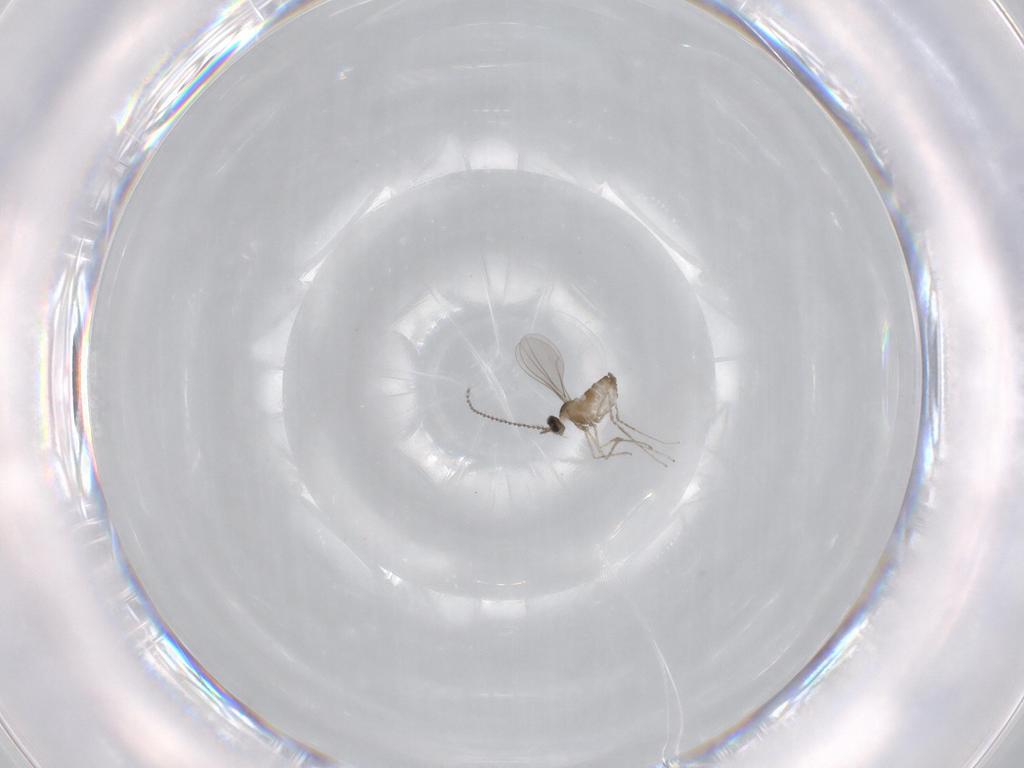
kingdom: Animalia
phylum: Arthropoda
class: Insecta
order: Diptera
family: Cecidomyiidae
